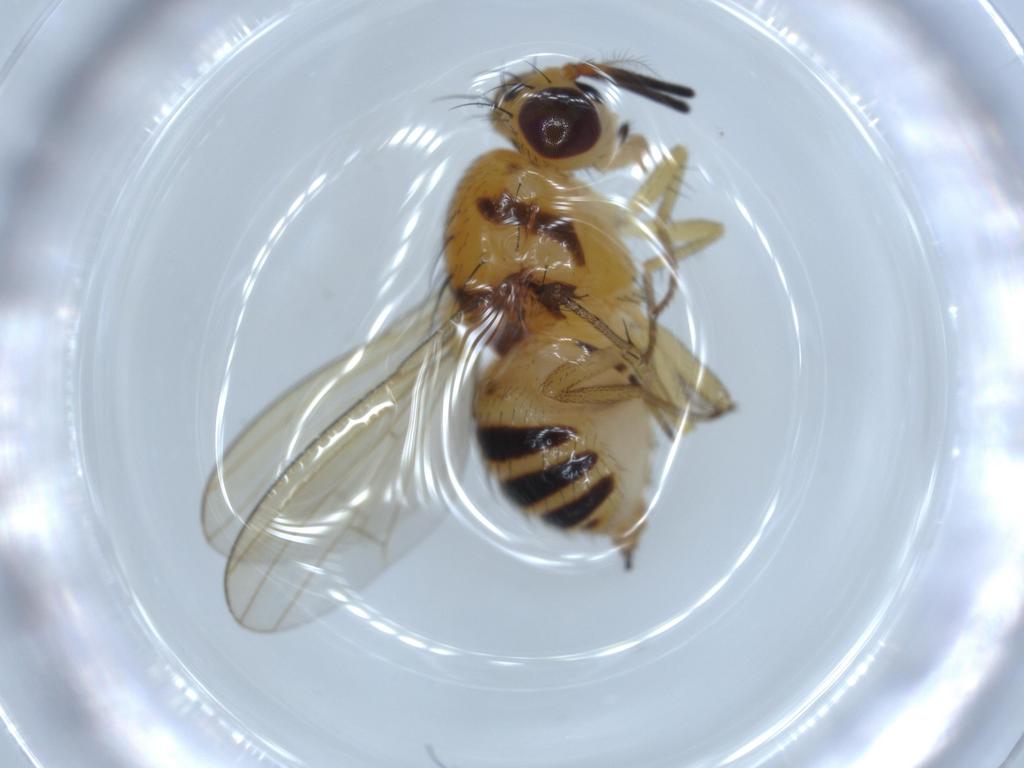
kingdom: Animalia
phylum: Arthropoda
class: Insecta
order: Diptera
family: Lauxaniidae
